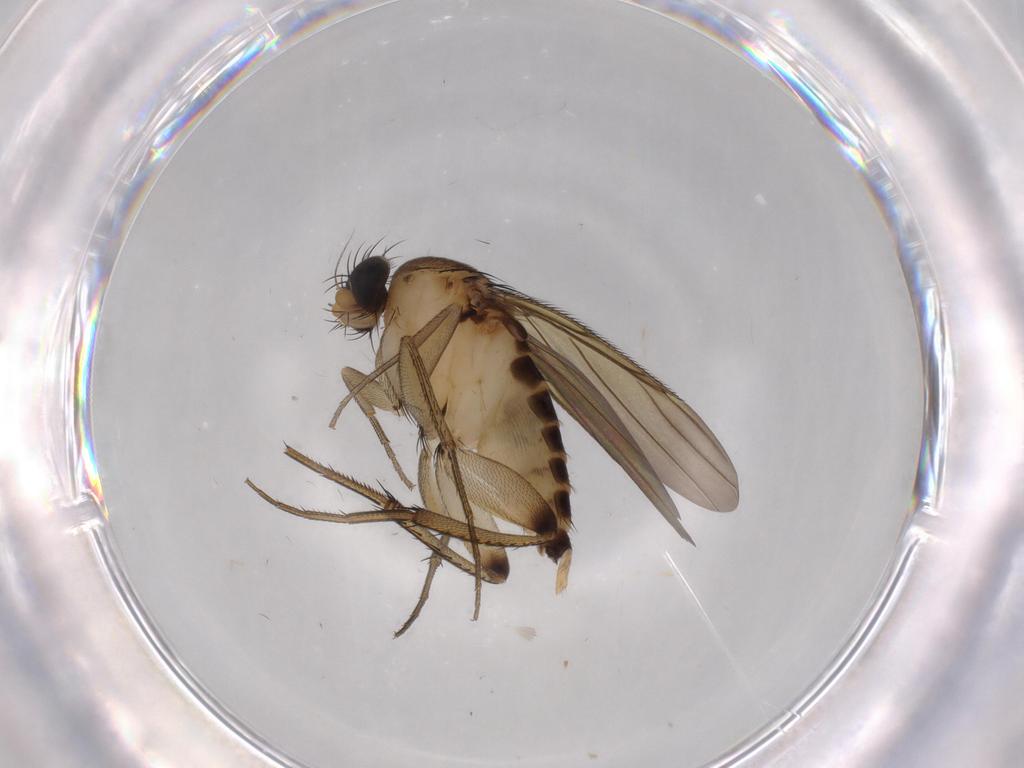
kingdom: Animalia
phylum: Arthropoda
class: Insecta
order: Diptera
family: Phoridae
